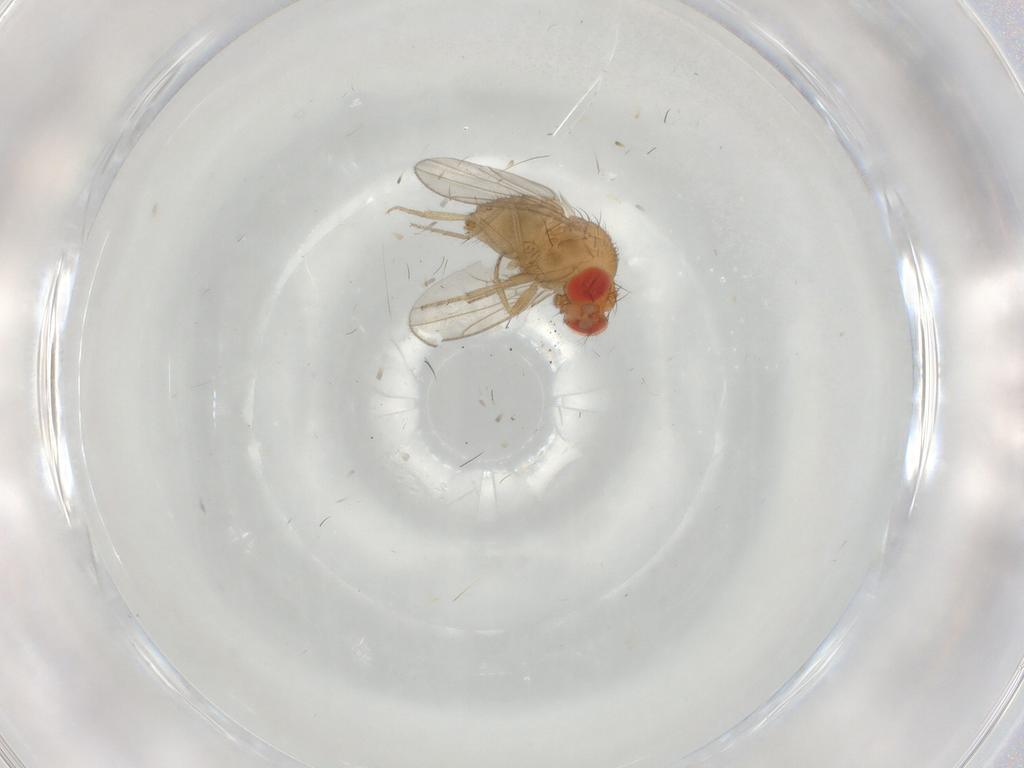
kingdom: Animalia
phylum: Arthropoda
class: Insecta
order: Diptera
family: Drosophilidae
